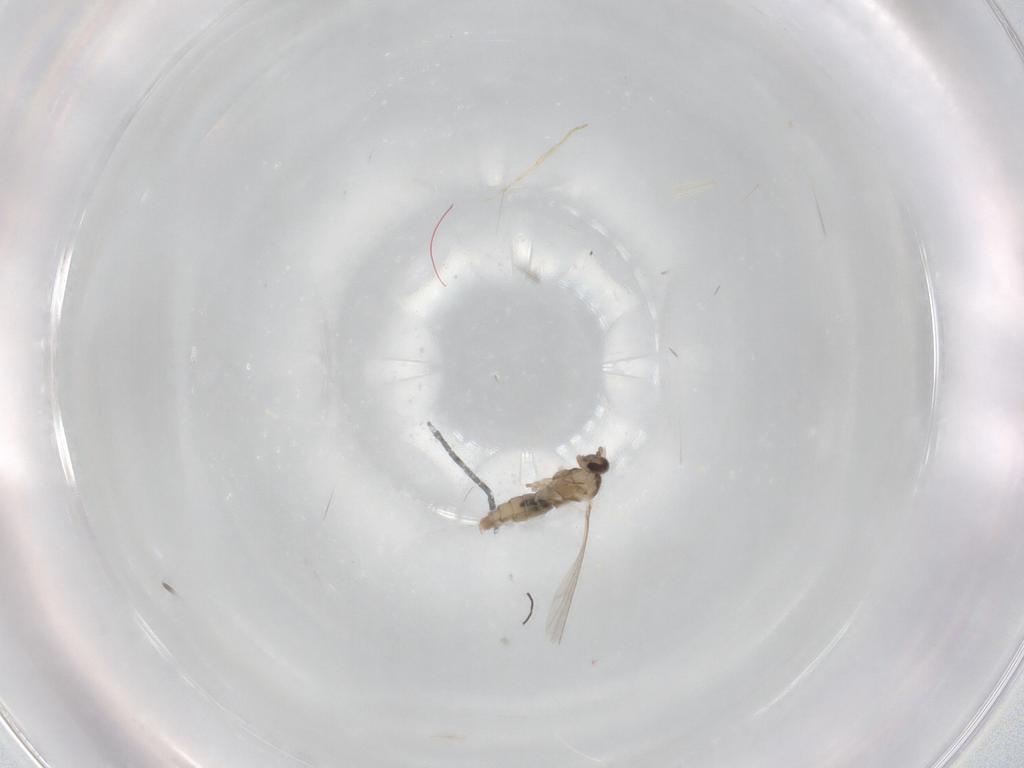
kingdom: Animalia
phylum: Arthropoda
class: Insecta
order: Diptera
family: Cecidomyiidae
